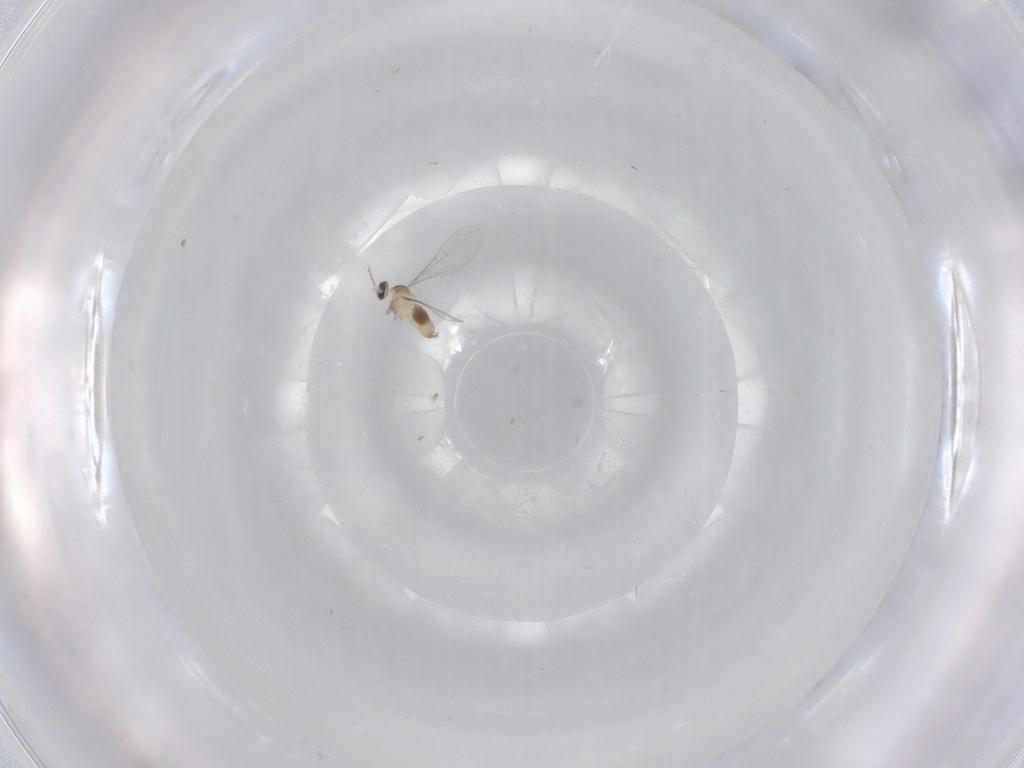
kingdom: Animalia
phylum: Arthropoda
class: Insecta
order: Diptera
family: Cecidomyiidae
